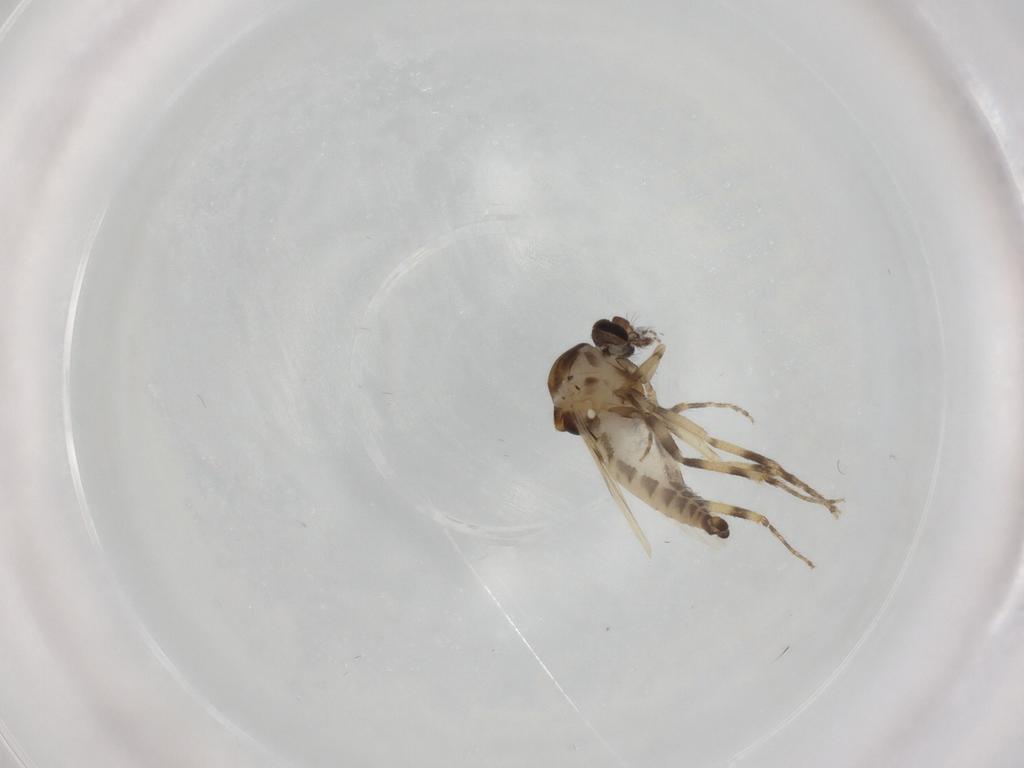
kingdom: Animalia
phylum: Arthropoda
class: Insecta
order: Diptera
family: Ceratopogonidae
